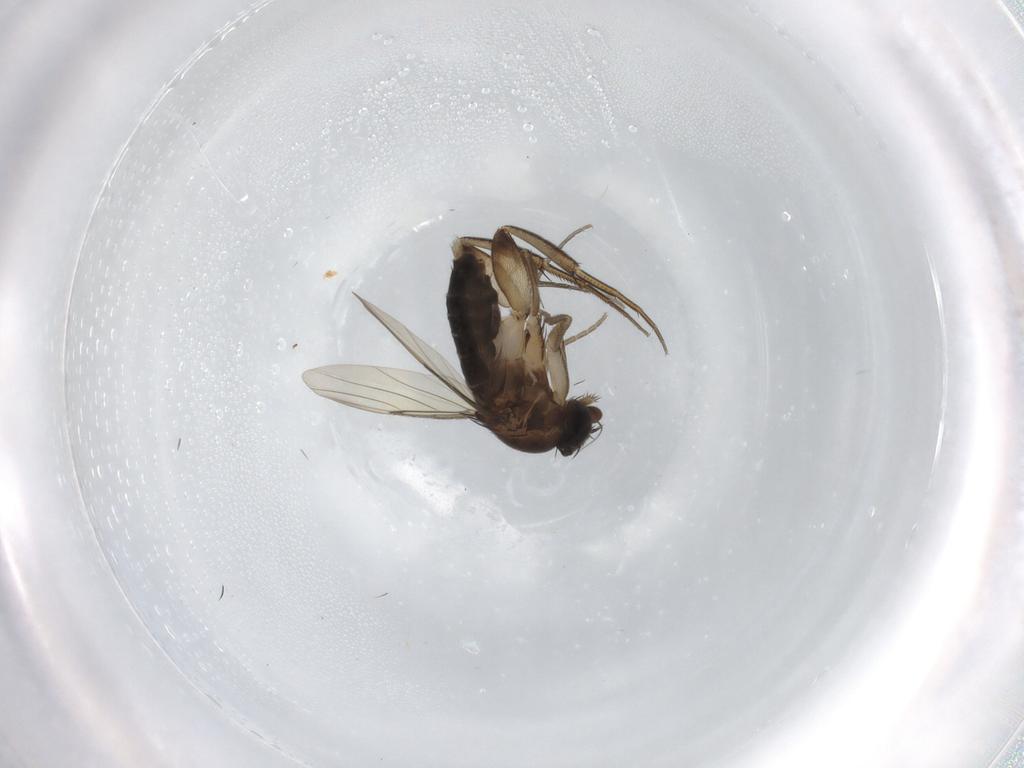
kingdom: Animalia
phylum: Arthropoda
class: Insecta
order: Diptera
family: Phoridae
